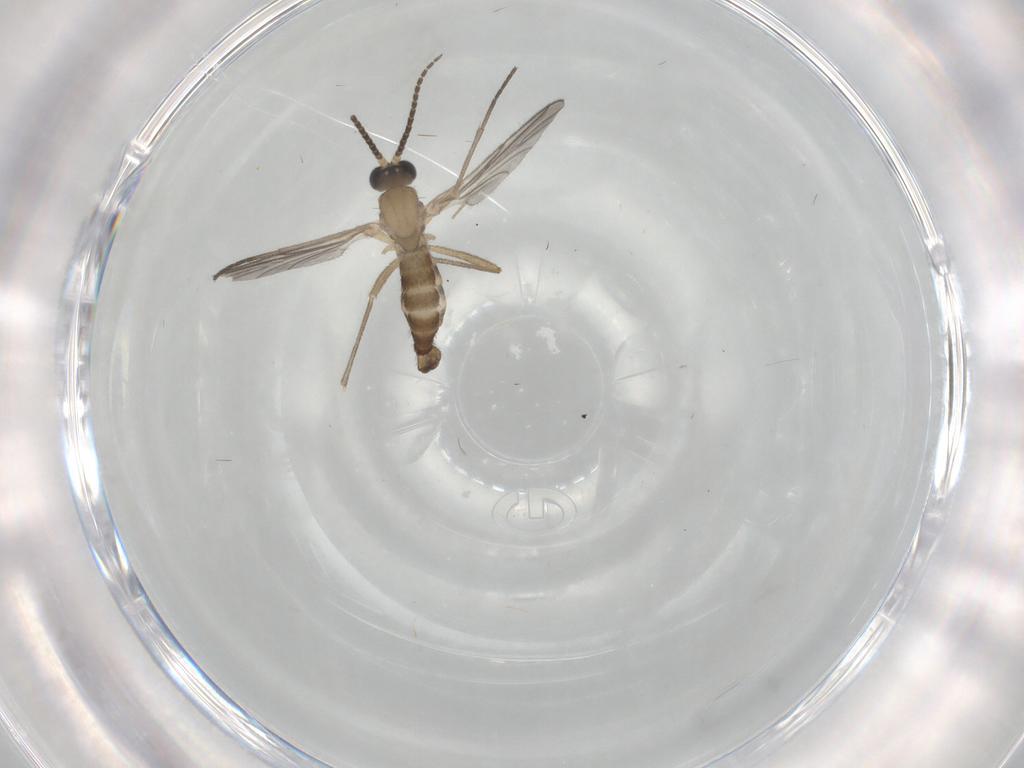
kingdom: Animalia
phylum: Arthropoda
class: Insecta
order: Diptera
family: Sciaridae
